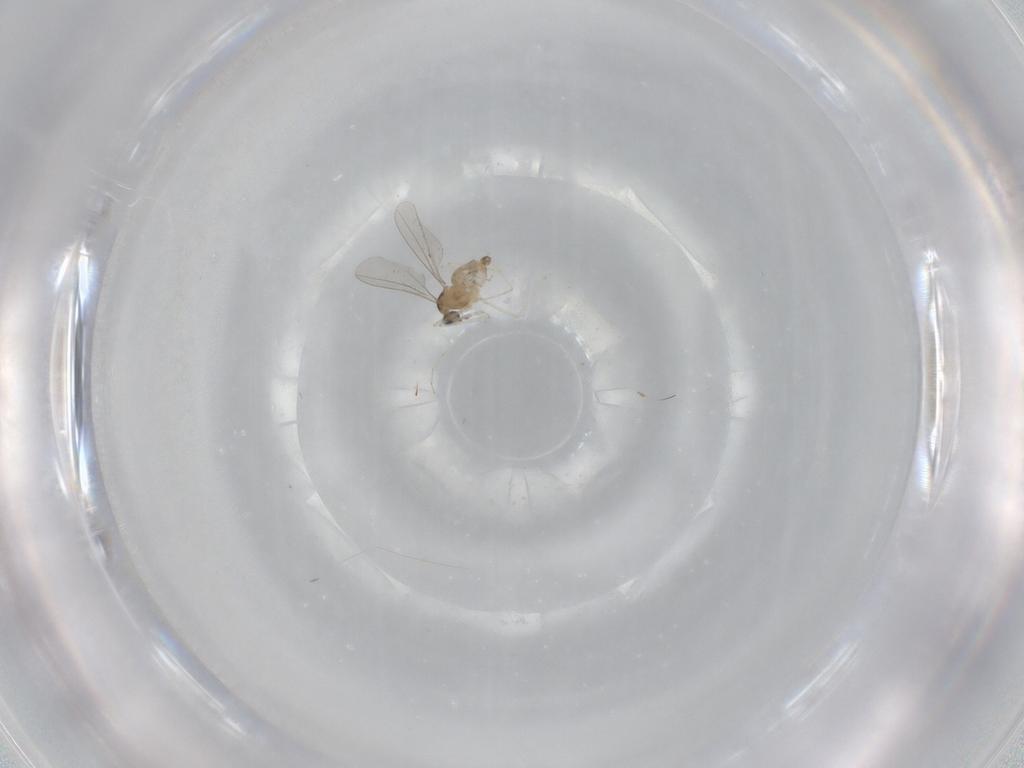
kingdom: Animalia
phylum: Arthropoda
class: Insecta
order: Diptera
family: Cecidomyiidae
